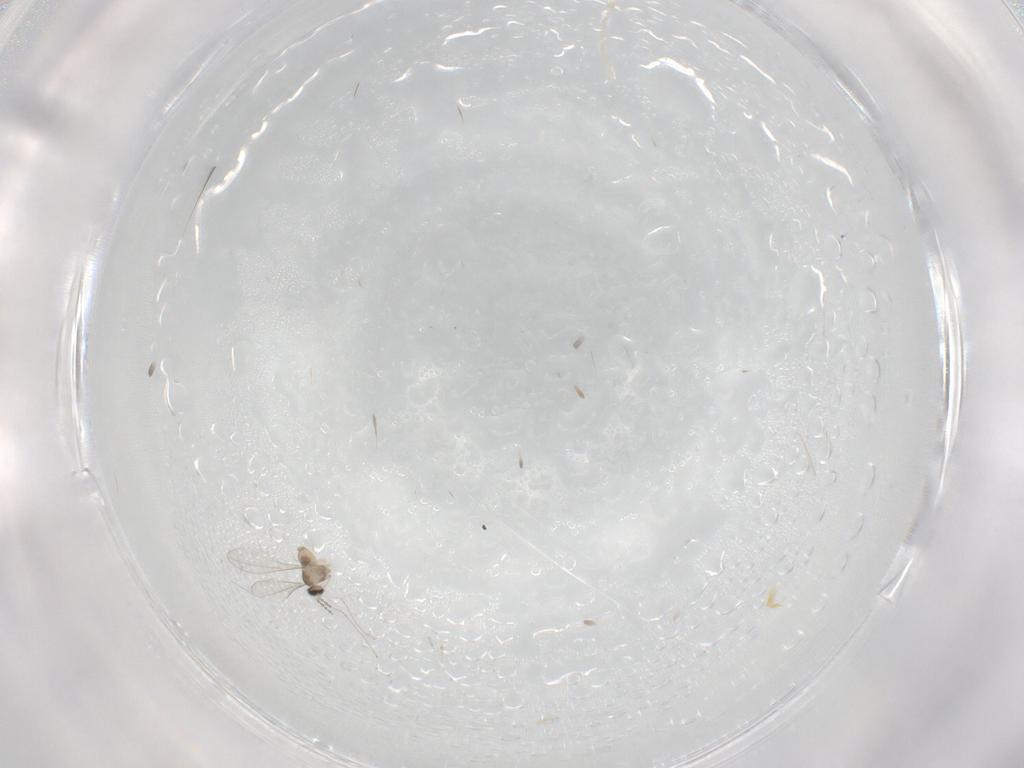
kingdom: Animalia
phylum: Arthropoda
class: Insecta
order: Diptera
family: Cecidomyiidae
